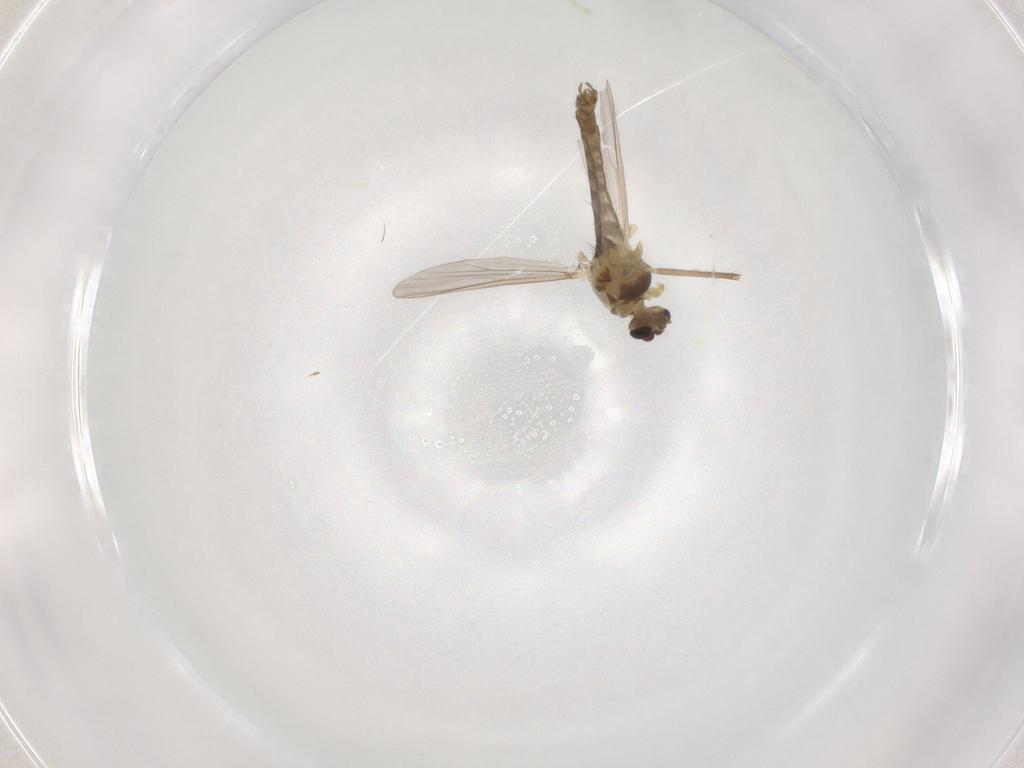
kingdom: Animalia
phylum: Arthropoda
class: Insecta
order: Diptera
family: Chironomidae
